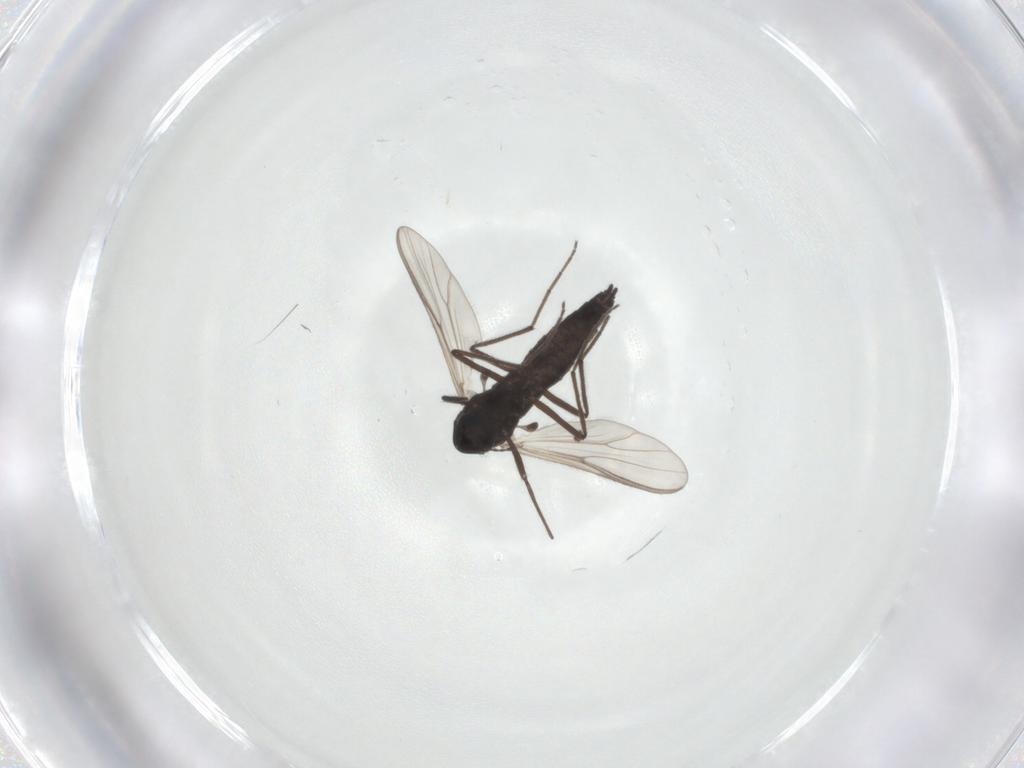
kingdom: Animalia
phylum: Arthropoda
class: Insecta
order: Diptera
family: Chironomidae
